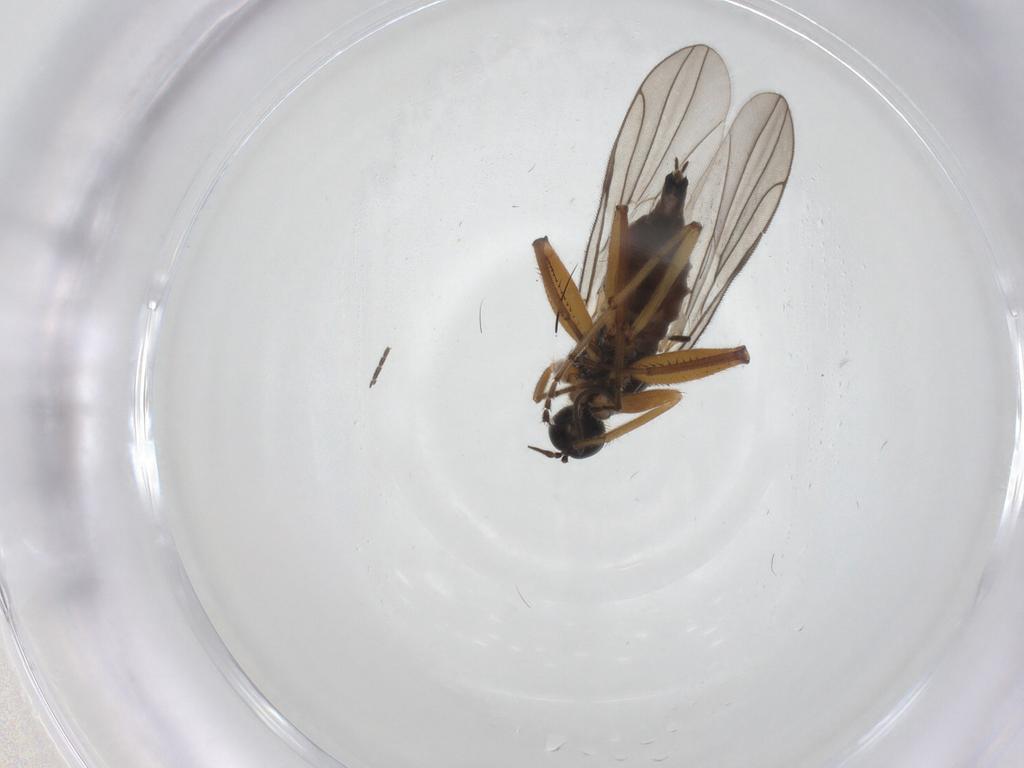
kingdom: Animalia
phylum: Arthropoda
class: Insecta
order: Diptera
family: Hybotidae
